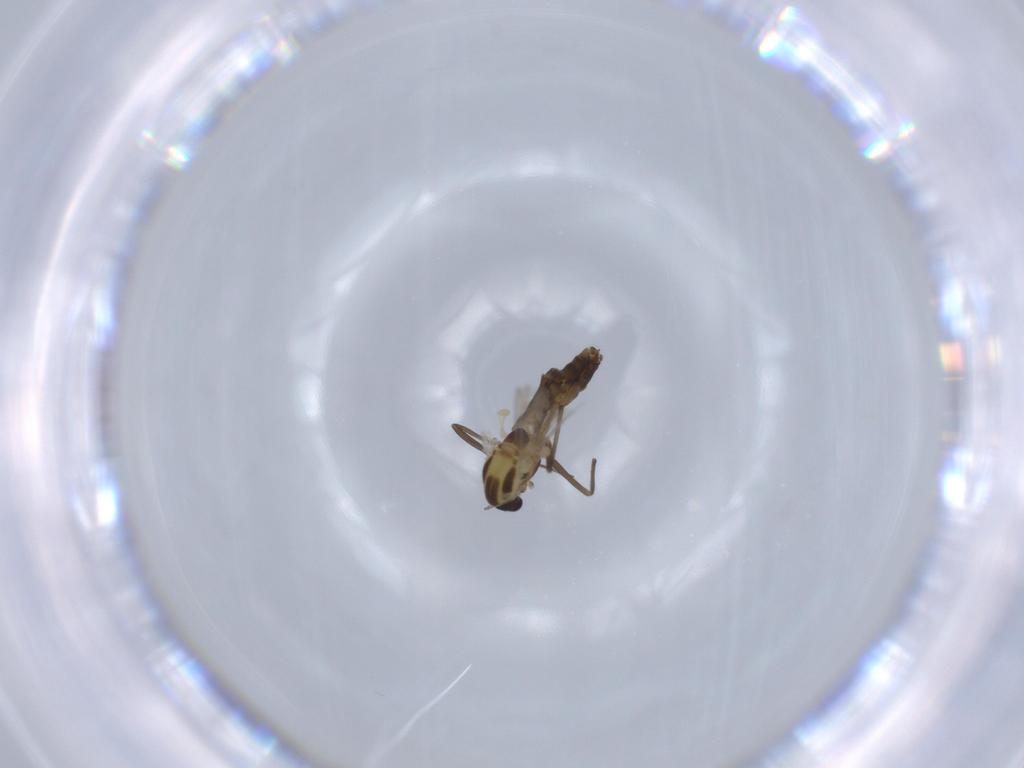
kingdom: Animalia
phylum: Arthropoda
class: Insecta
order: Diptera
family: Chironomidae
